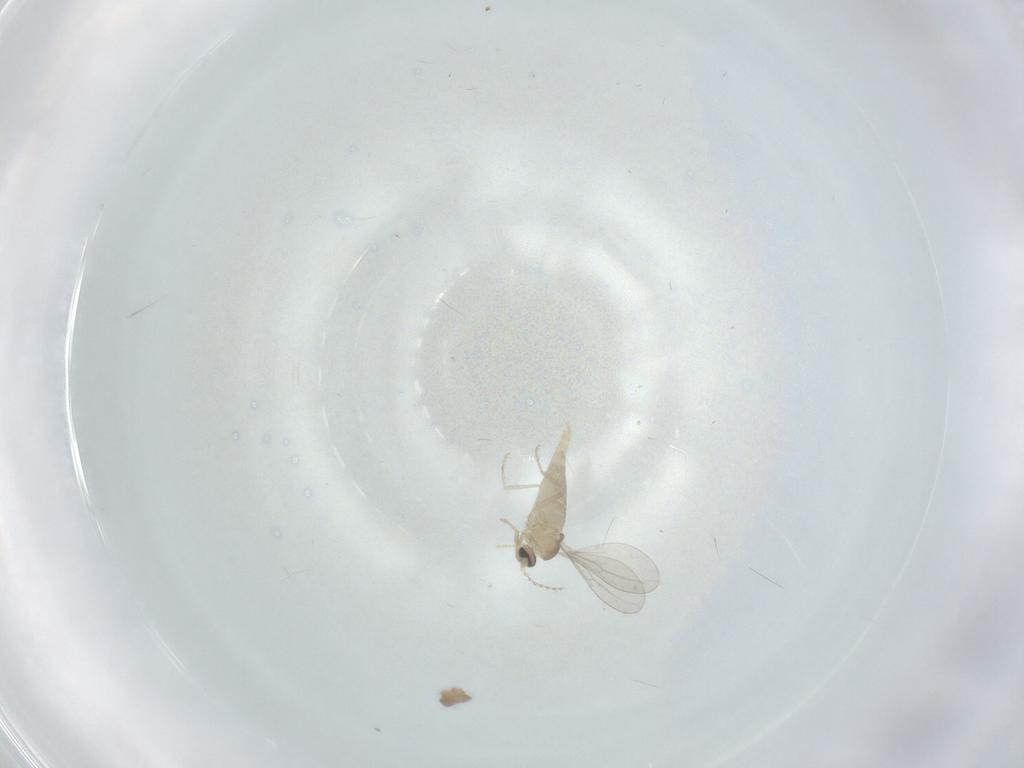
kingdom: Animalia
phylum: Arthropoda
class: Insecta
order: Diptera
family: Cecidomyiidae
